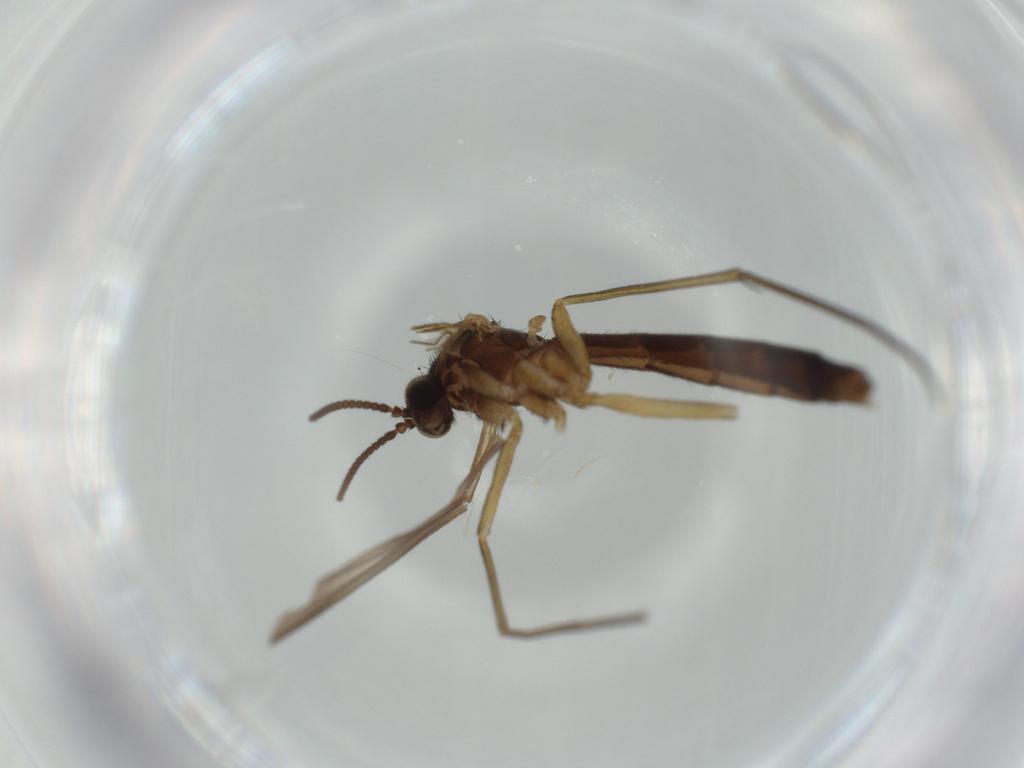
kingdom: Animalia
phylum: Arthropoda
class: Insecta
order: Diptera
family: Keroplatidae
